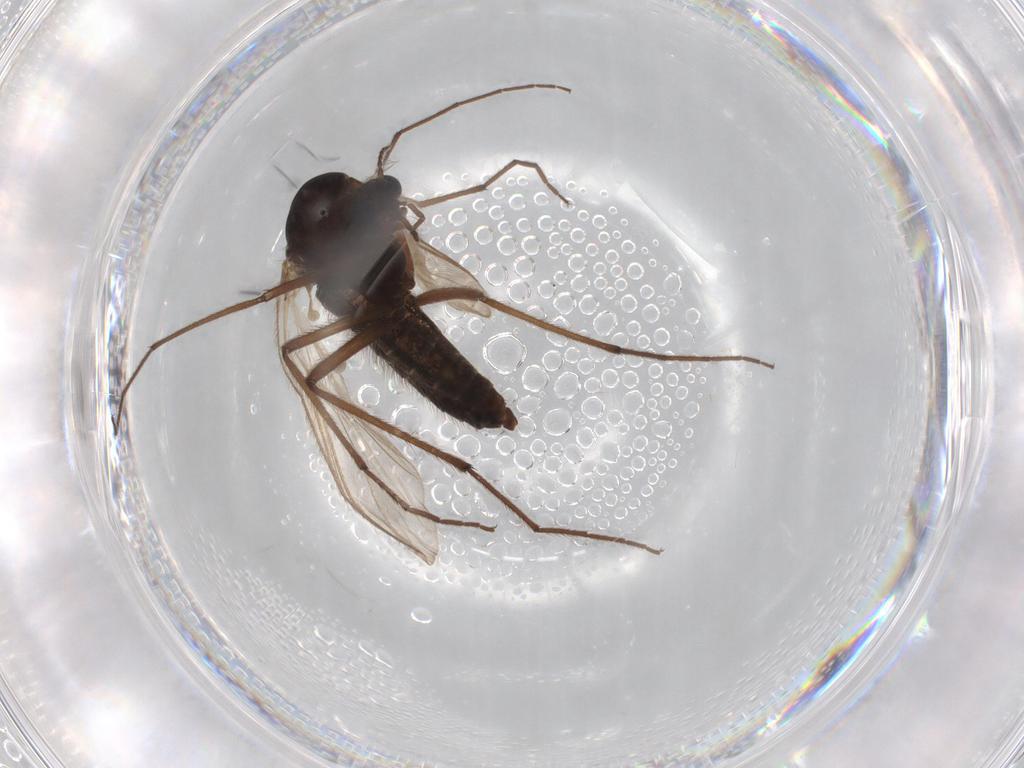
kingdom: Animalia
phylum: Arthropoda
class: Insecta
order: Diptera
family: Sphaeroceridae
